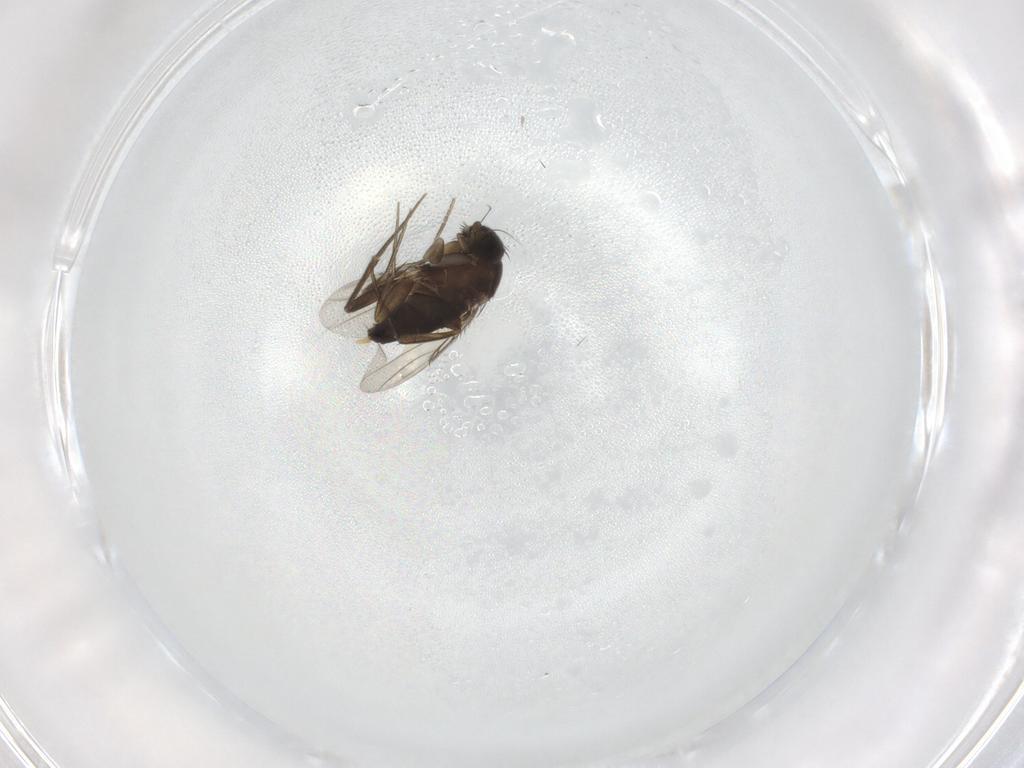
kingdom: Animalia
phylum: Arthropoda
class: Insecta
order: Diptera
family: Phoridae
